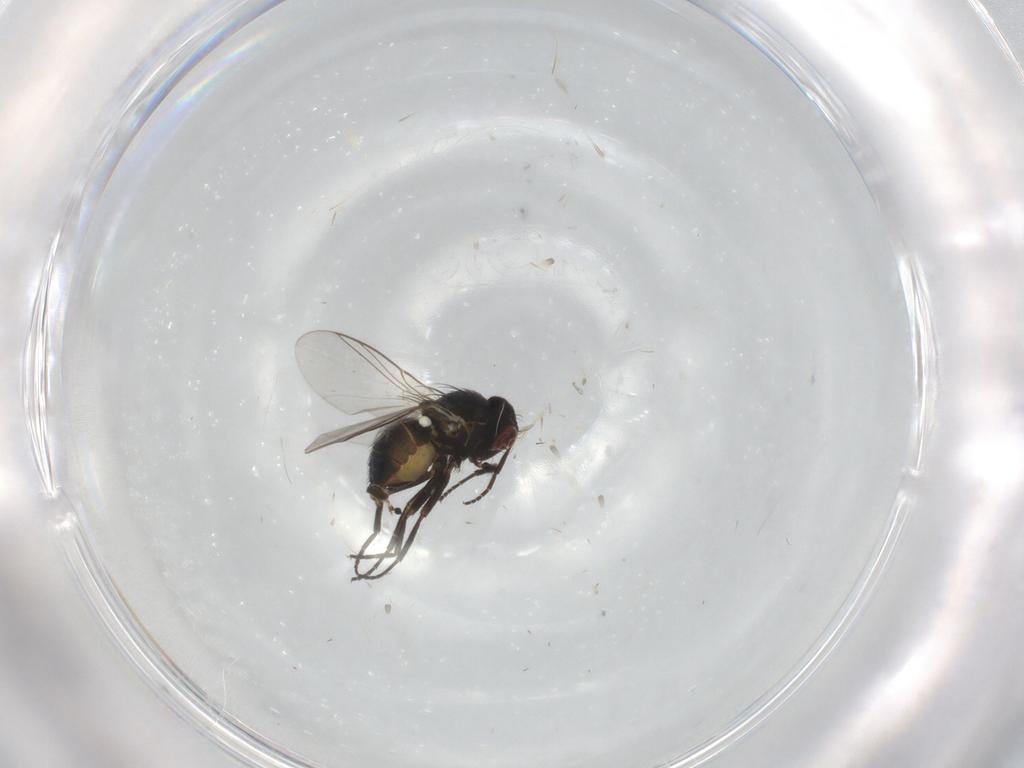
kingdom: Animalia
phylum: Arthropoda
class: Insecta
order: Diptera
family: Agromyzidae
